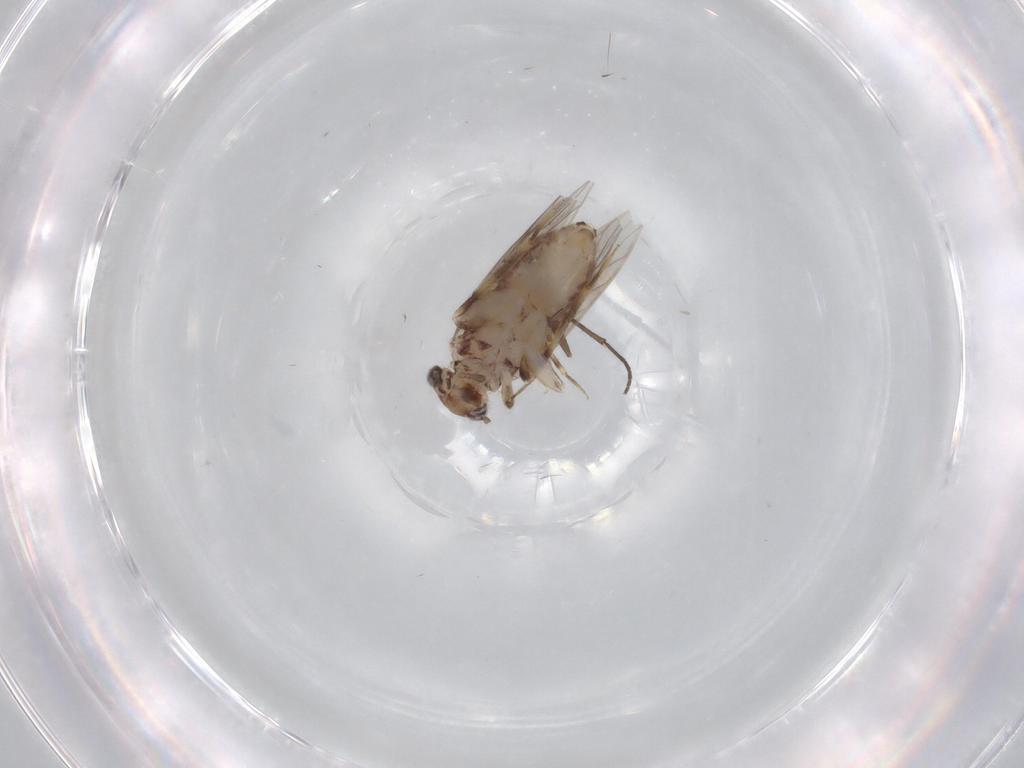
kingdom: Animalia
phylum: Arthropoda
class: Insecta
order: Psocodea
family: Lepidopsocidae
